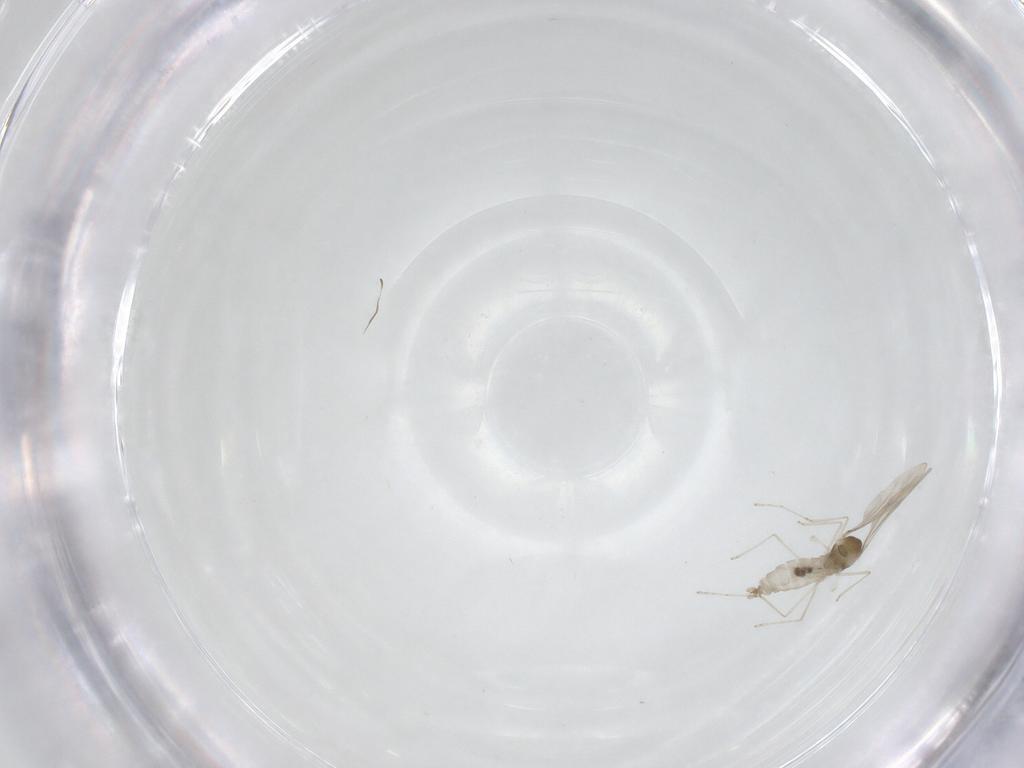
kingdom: Animalia
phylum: Arthropoda
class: Insecta
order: Diptera
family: Cecidomyiidae
